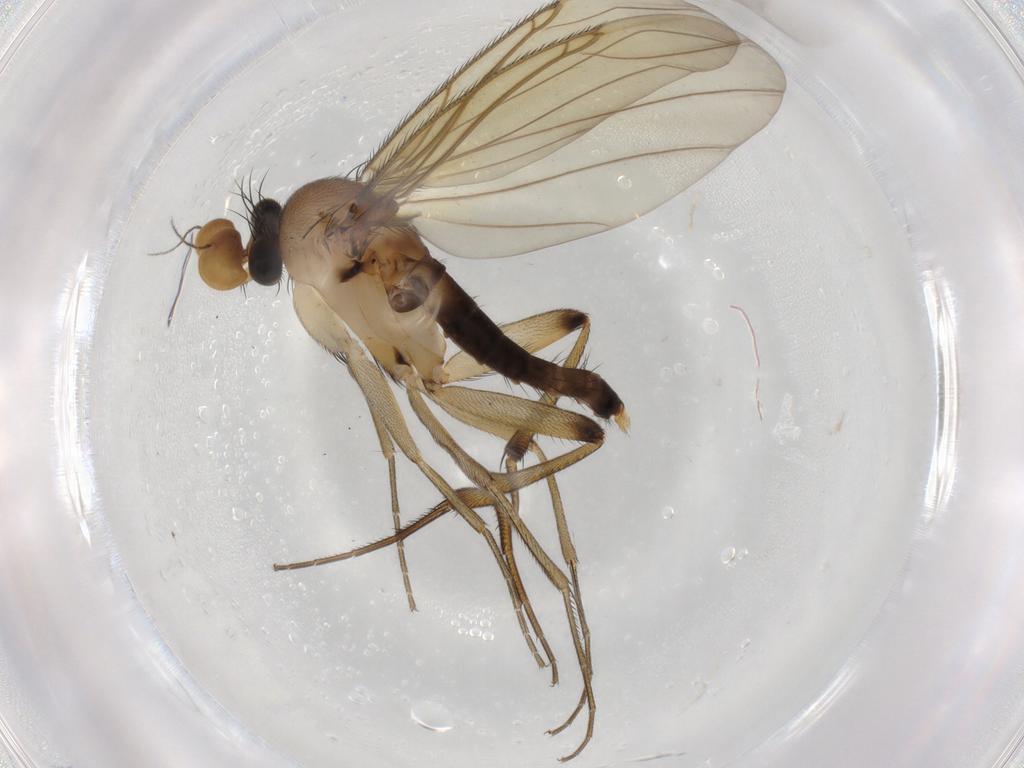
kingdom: Animalia
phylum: Arthropoda
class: Insecta
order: Diptera
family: Phoridae
